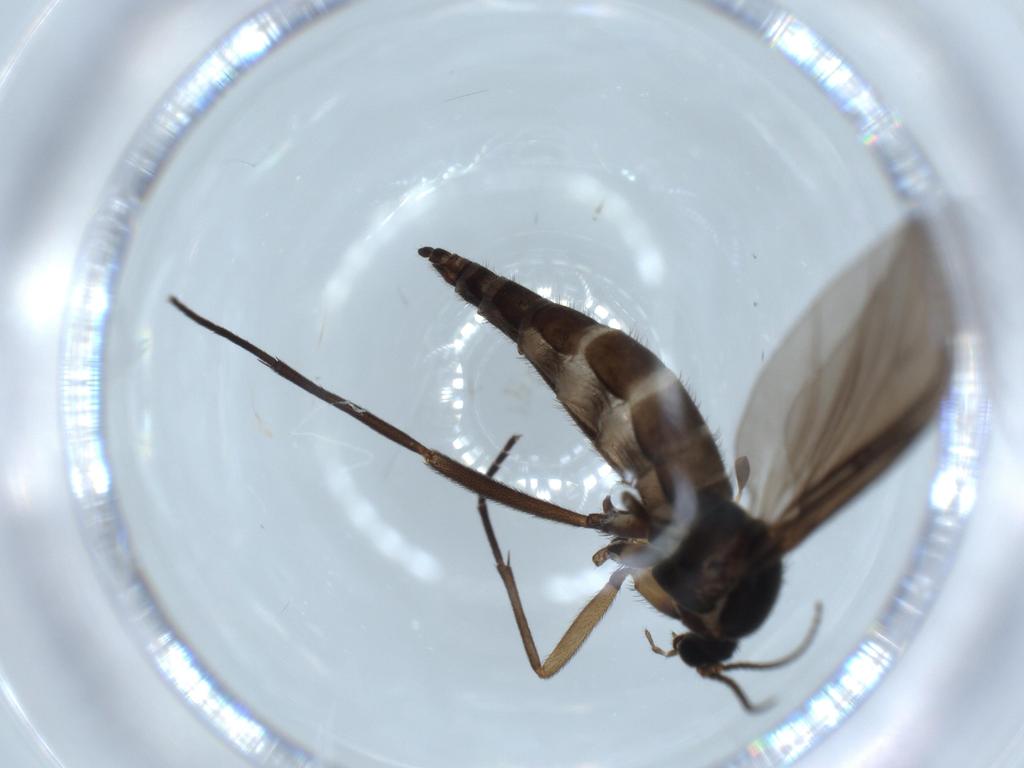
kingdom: Animalia
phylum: Arthropoda
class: Insecta
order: Diptera
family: Sciaridae
